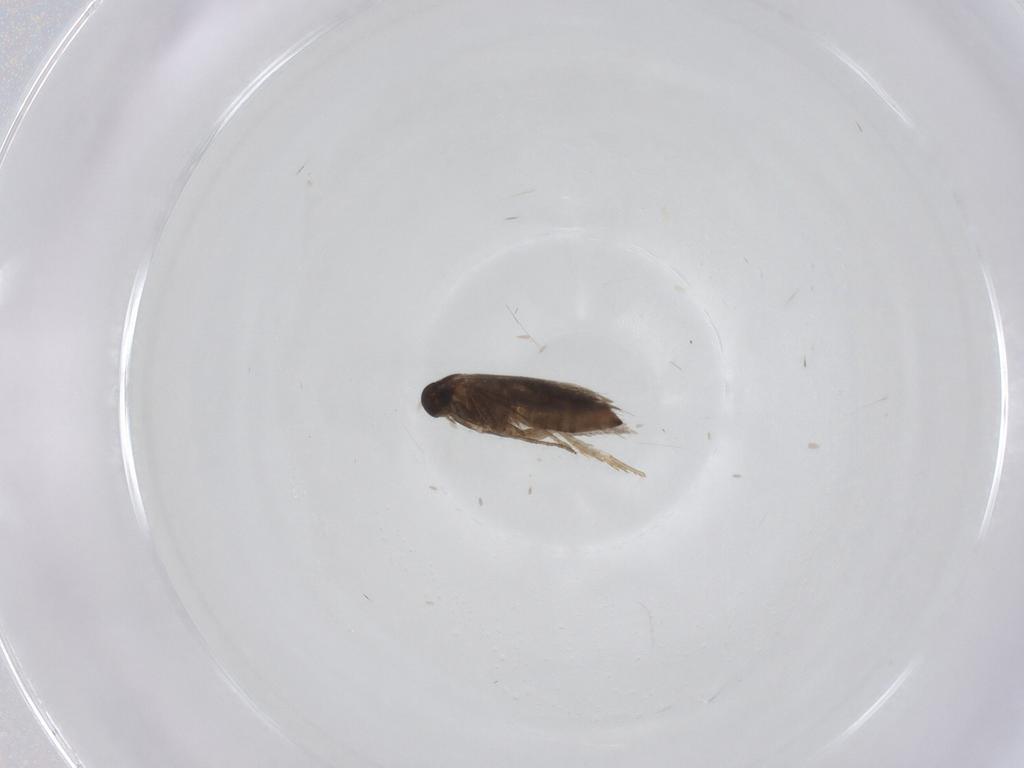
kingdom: Animalia
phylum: Arthropoda
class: Insecta
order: Lepidoptera
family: Heliozelidae
